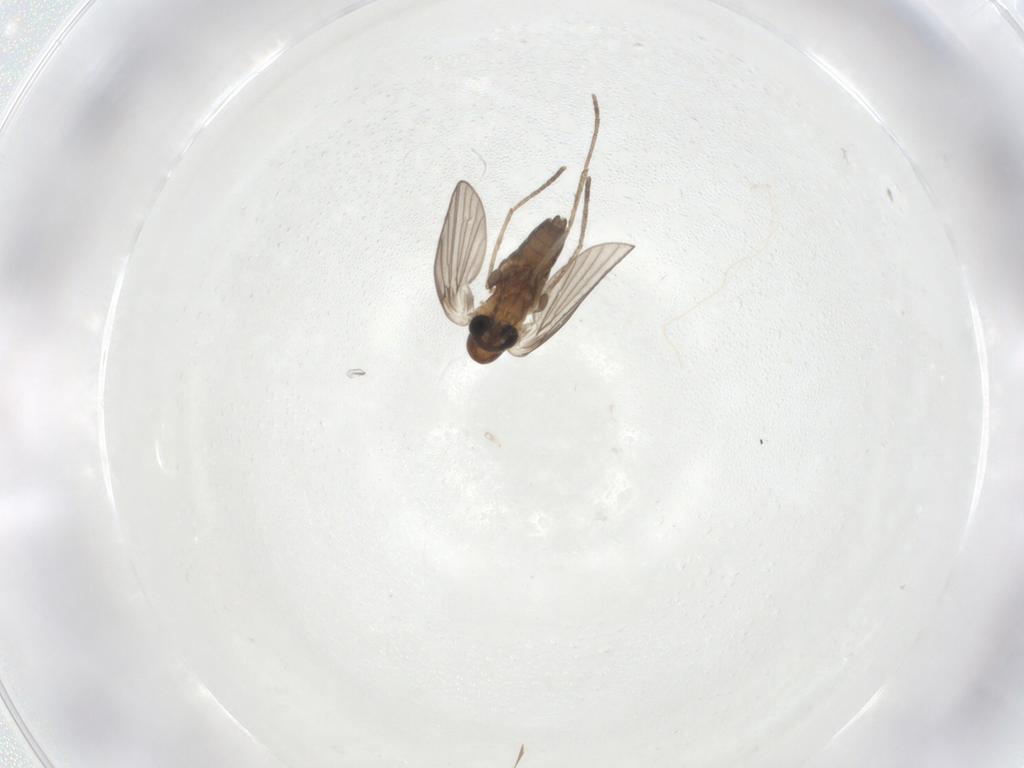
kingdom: Animalia
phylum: Arthropoda
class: Insecta
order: Diptera
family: Psychodidae
